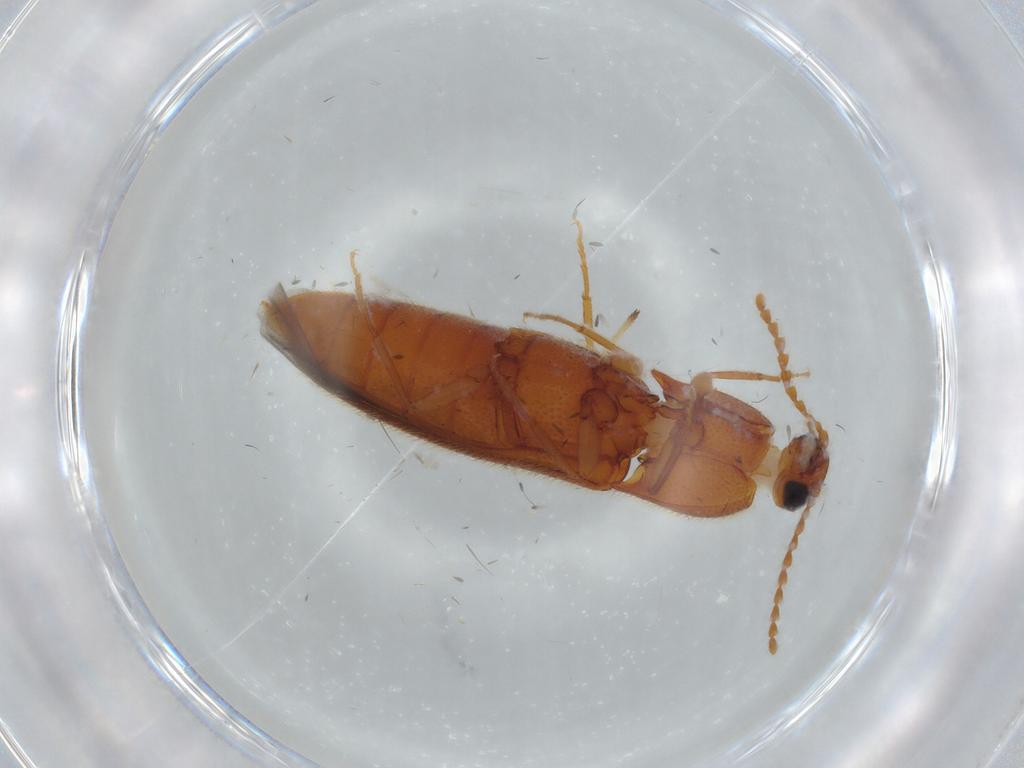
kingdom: Animalia
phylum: Arthropoda
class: Insecta
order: Coleoptera
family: Elateridae
